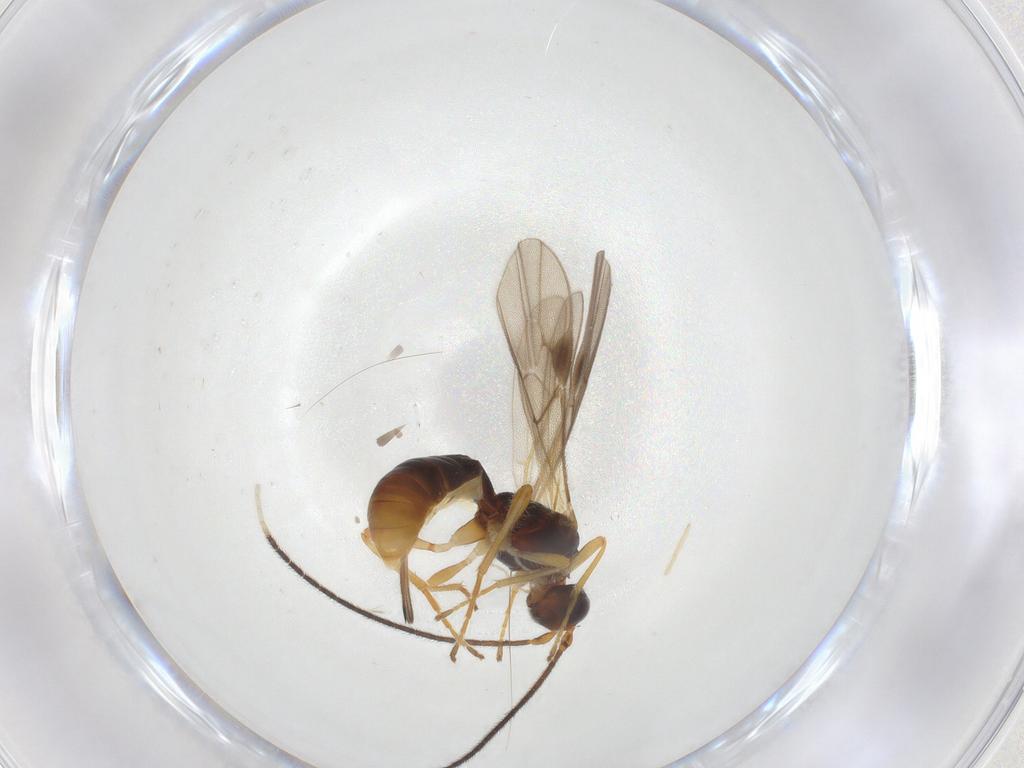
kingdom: Animalia
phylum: Arthropoda
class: Insecta
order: Hymenoptera
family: Braconidae
